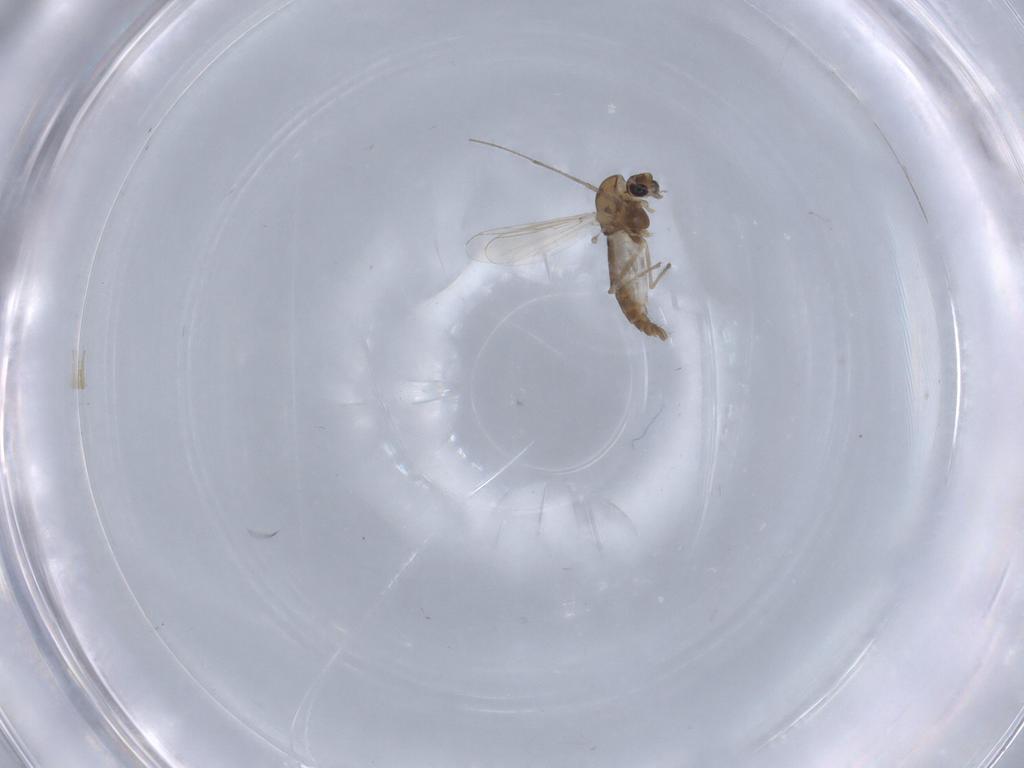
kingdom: Animalia
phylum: Arthropoda
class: Insecta
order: Diptera
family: Chironomidae
